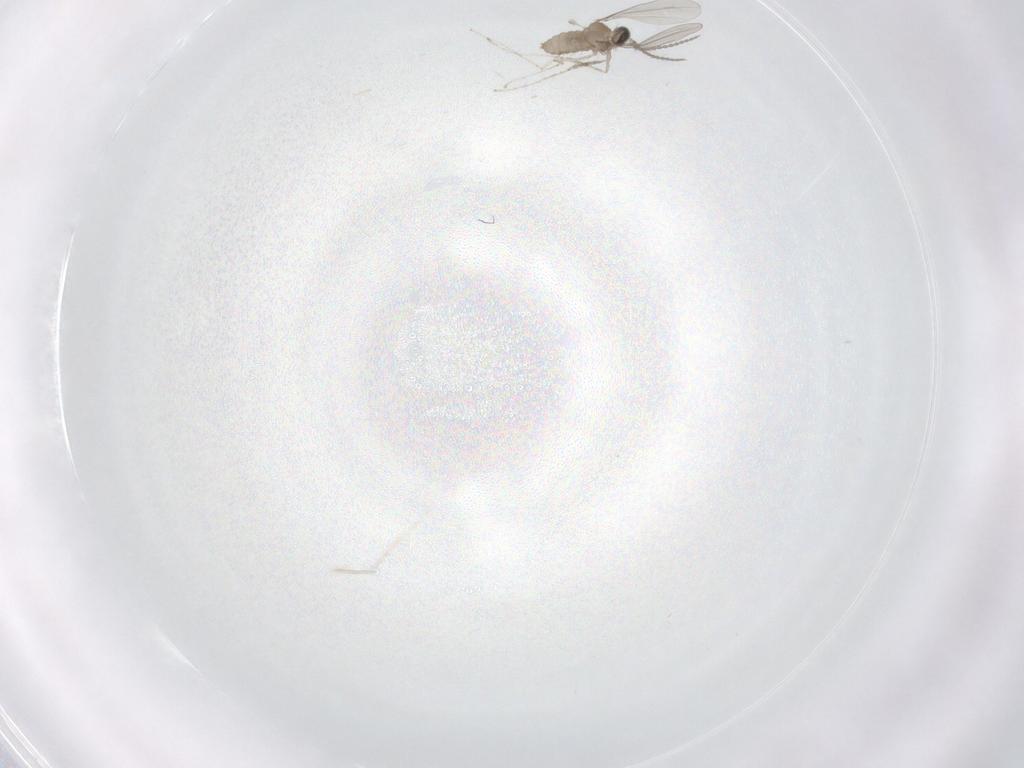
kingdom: Animalia
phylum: Arthropoda
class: Insecta
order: Diptera
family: Cecidomyiidae
